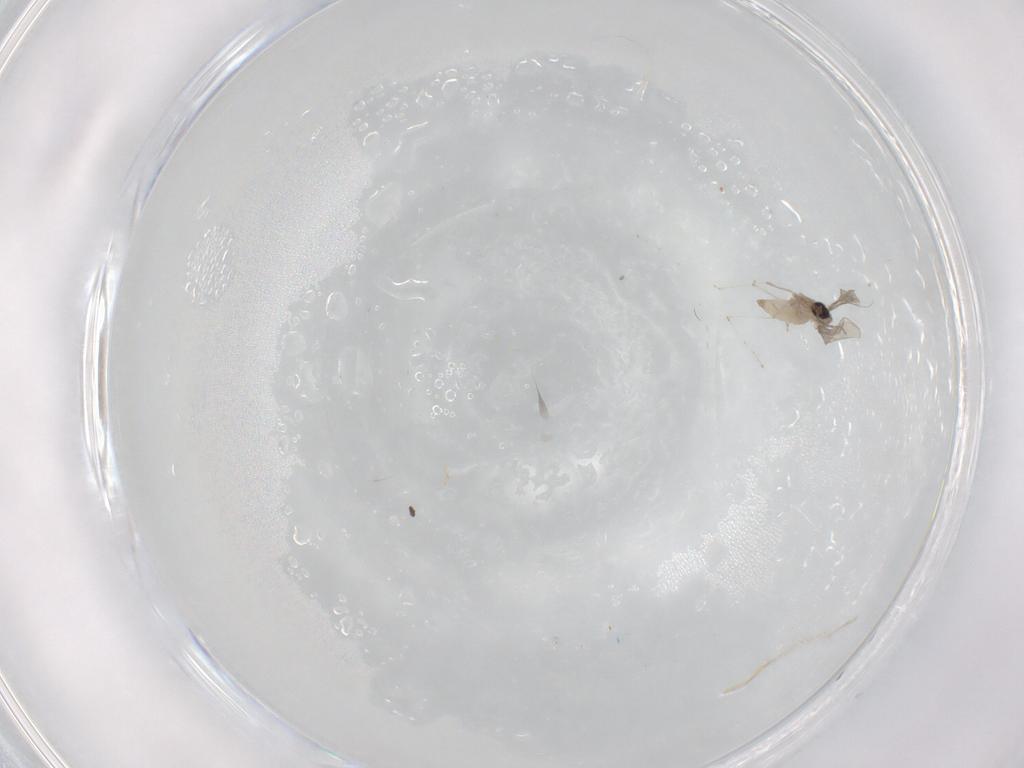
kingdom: Animalia
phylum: Arthropoda
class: Insecta
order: Diptera
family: Cecidomyiidae
